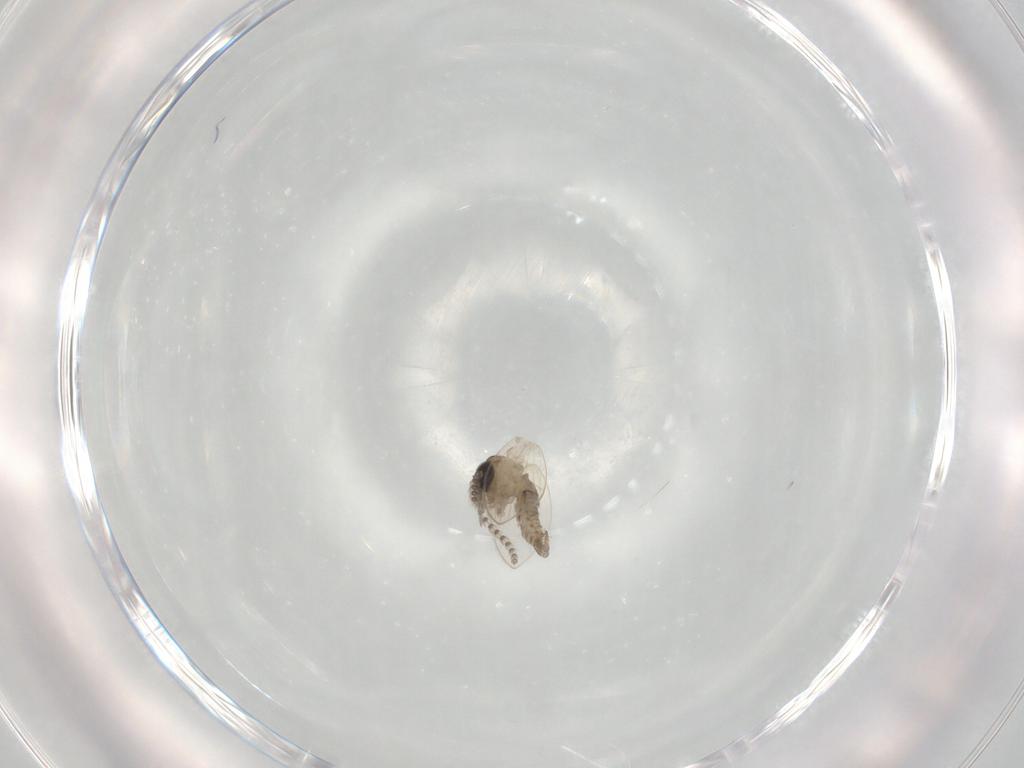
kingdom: Animalia
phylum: Arthropoda
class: Insecta
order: Diptera
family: Psychodidae
